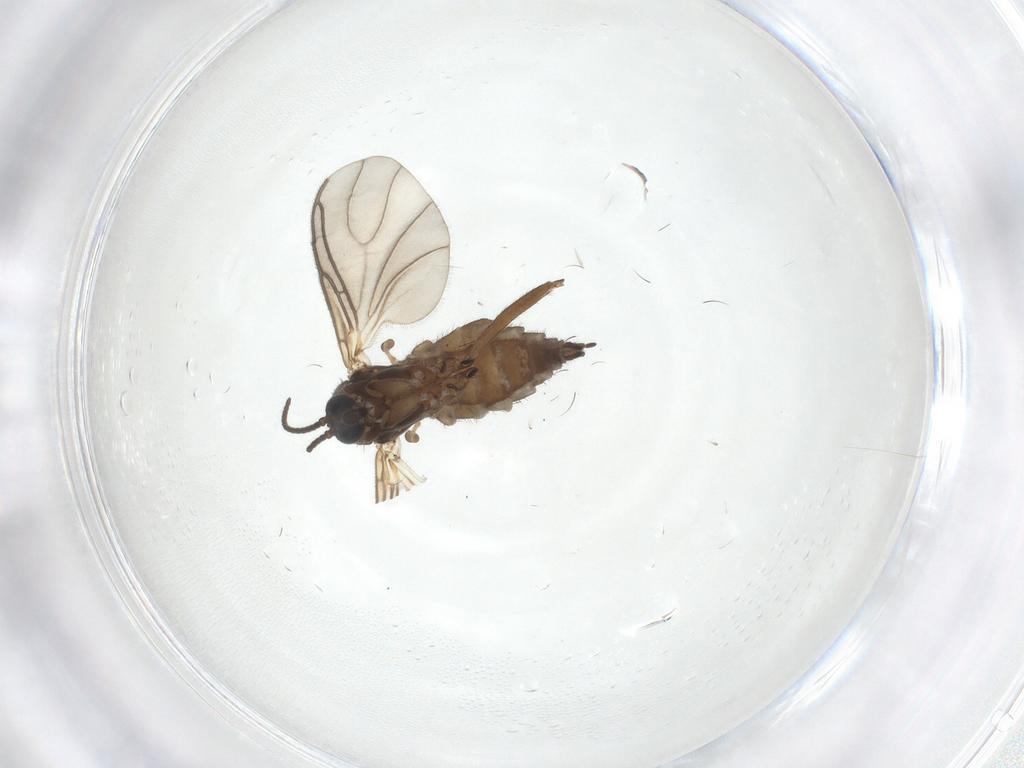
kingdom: Animalia
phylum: Arthropoda
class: Insecta
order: Diptera
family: Sciaridae
